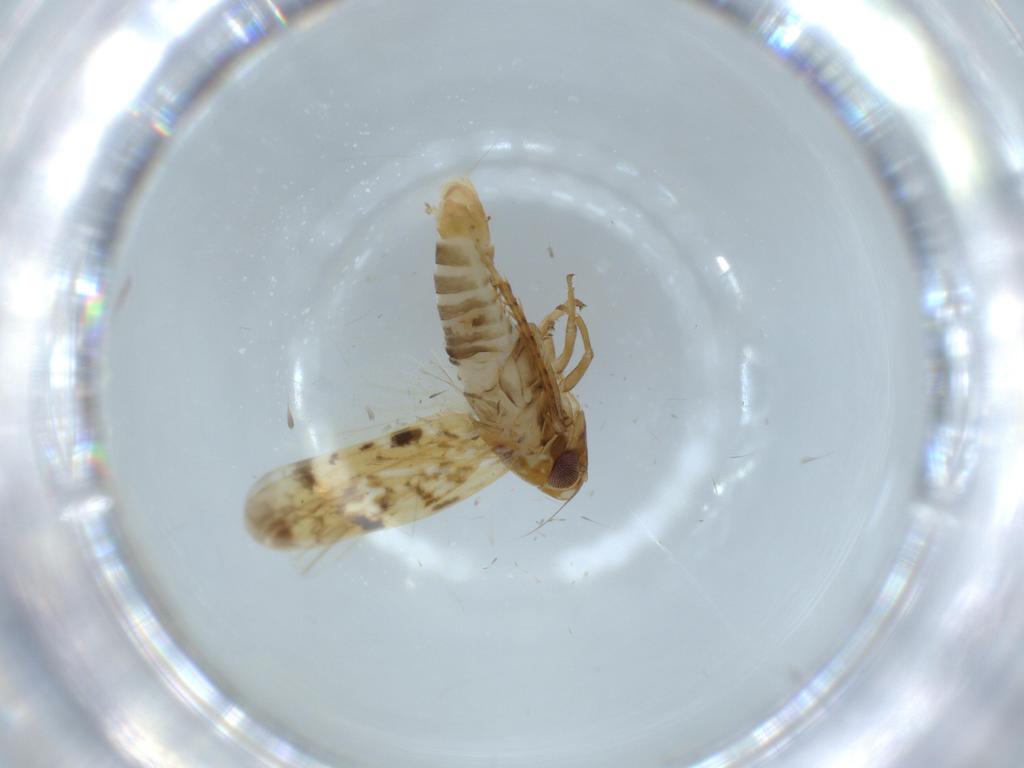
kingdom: Animalia
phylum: Arthropoda
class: Insecta
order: Hemiptera
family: Cicadellidae
